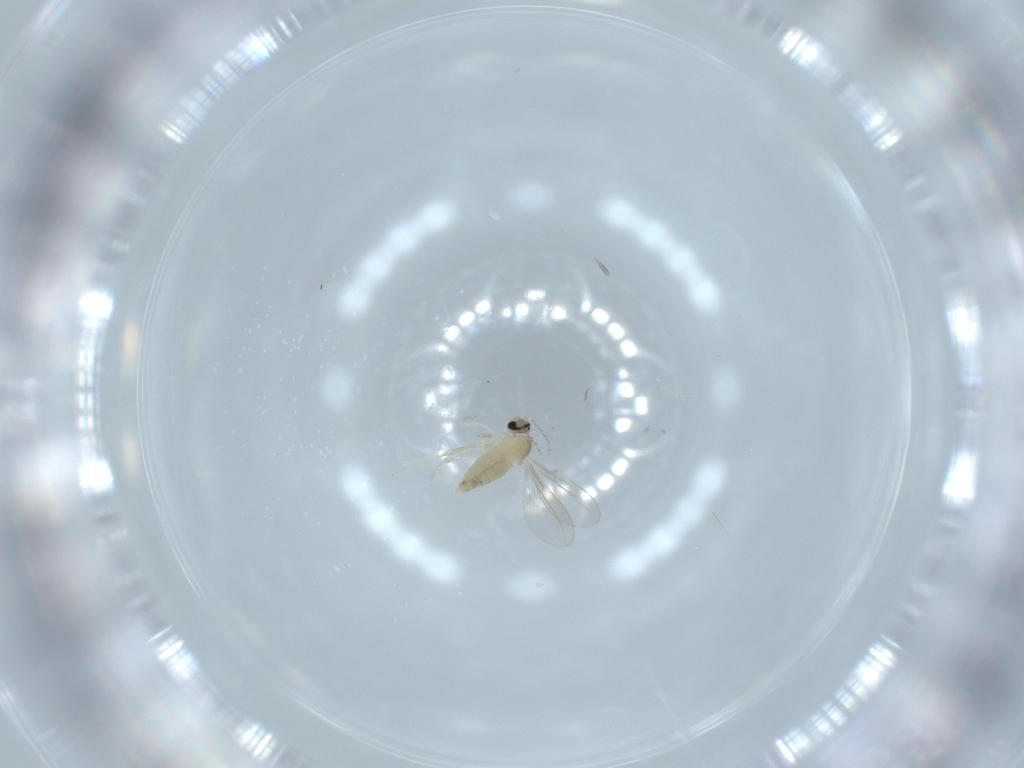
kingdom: Animalia
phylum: Arthropoda
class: Insecta
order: Diptera
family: Cecidomyiidae
